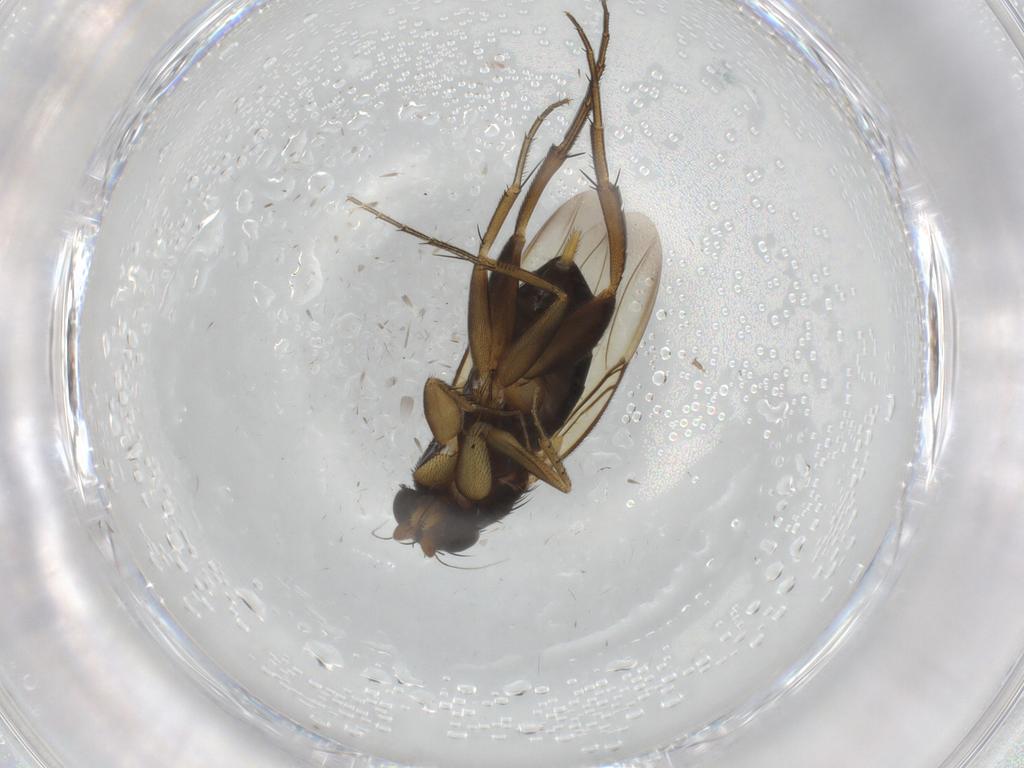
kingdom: Animalia
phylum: Arthropoda
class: Insecta
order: Diptera
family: Phoridae
